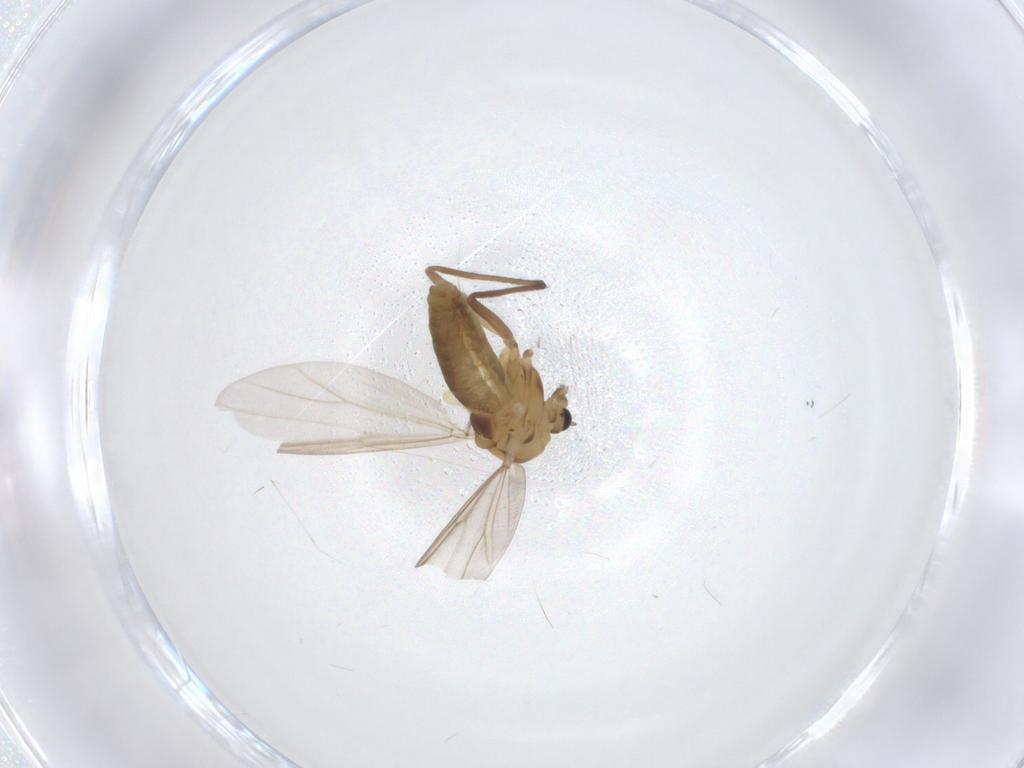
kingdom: Animalia
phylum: Arthropoda
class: Insecta
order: Diptera
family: Chironomidae
